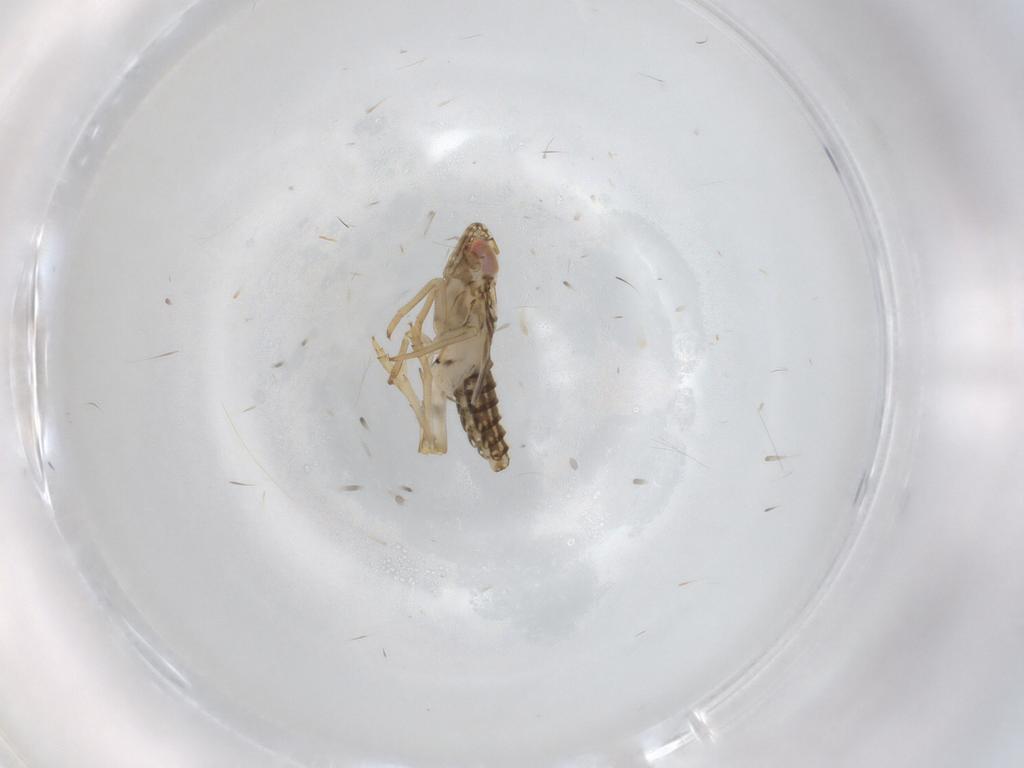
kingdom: Animalia
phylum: Arthropoda
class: Insecta
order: Hemiptera
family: Delphacidae
